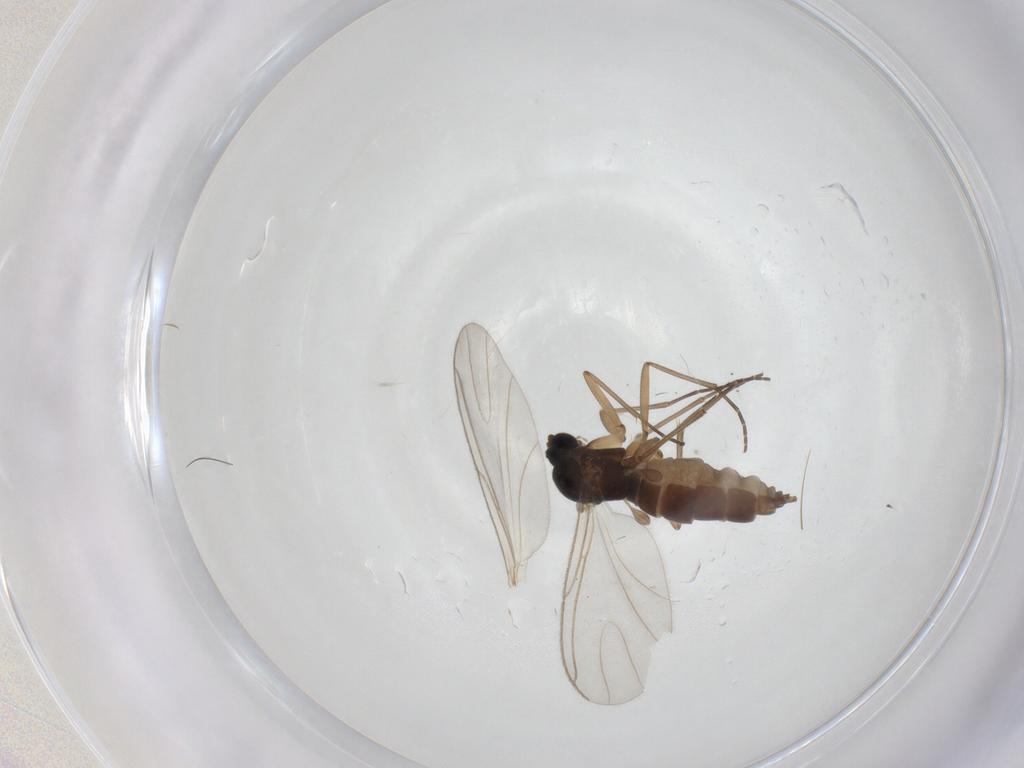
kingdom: Animalia
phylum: Arthropoda
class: Insecta
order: Diptera
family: Sciaridae
